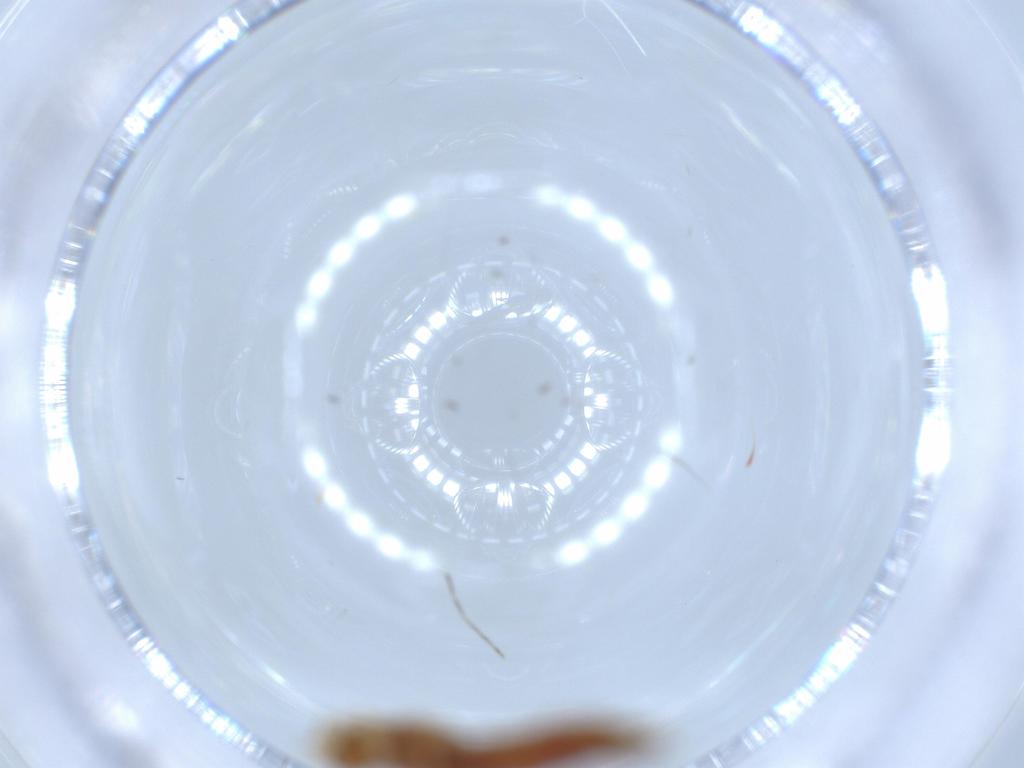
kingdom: Animalia
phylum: Arthropoda
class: Insecta
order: Coleoptera
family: Staphylinidae
